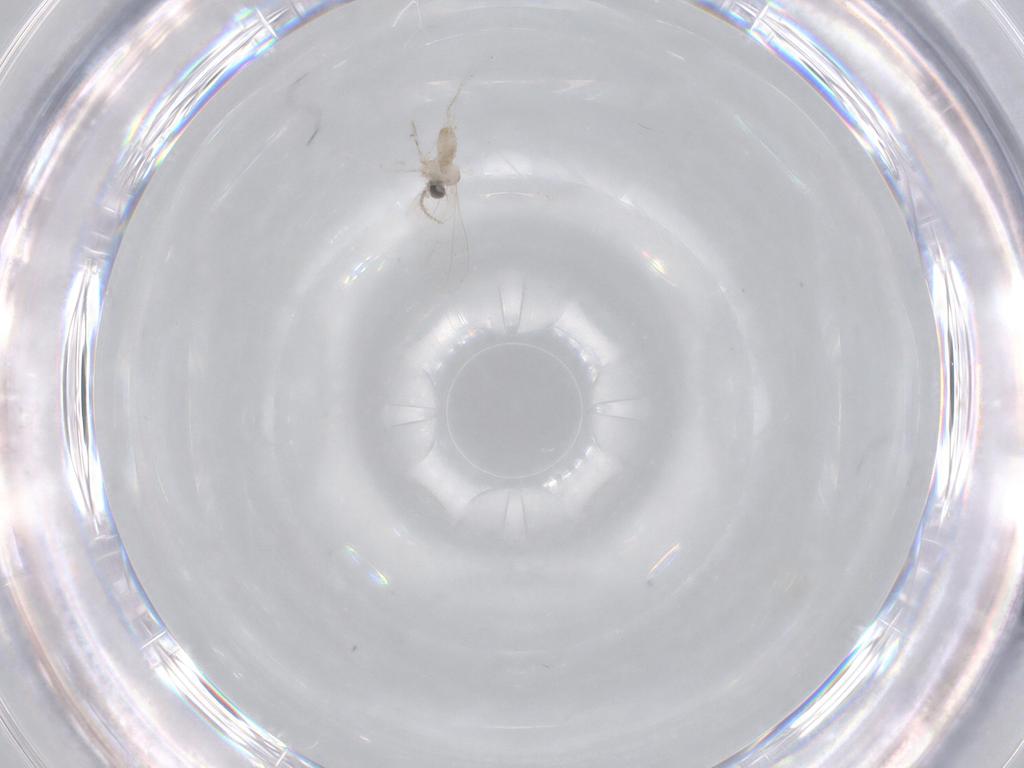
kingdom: Animalia
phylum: Arthropoda
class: Insecta
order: Diptera
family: Cecidomyiidae
